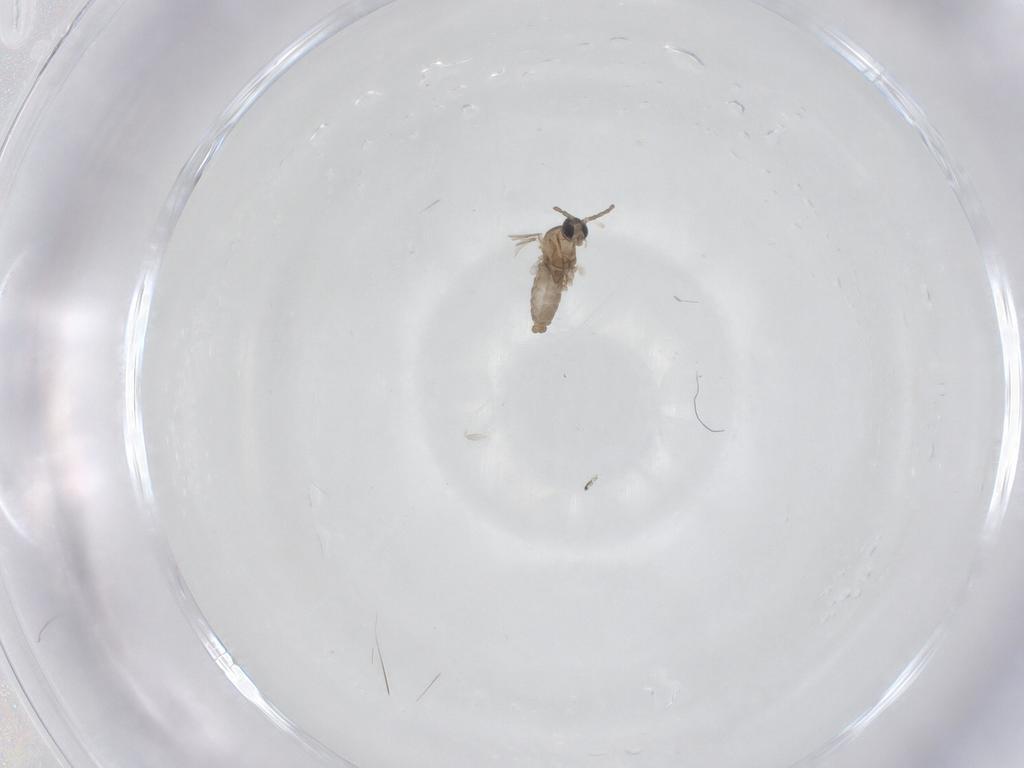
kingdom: Animalia
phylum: Arthropoda
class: Insecta
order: Diptera
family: Cecidomyiidae
